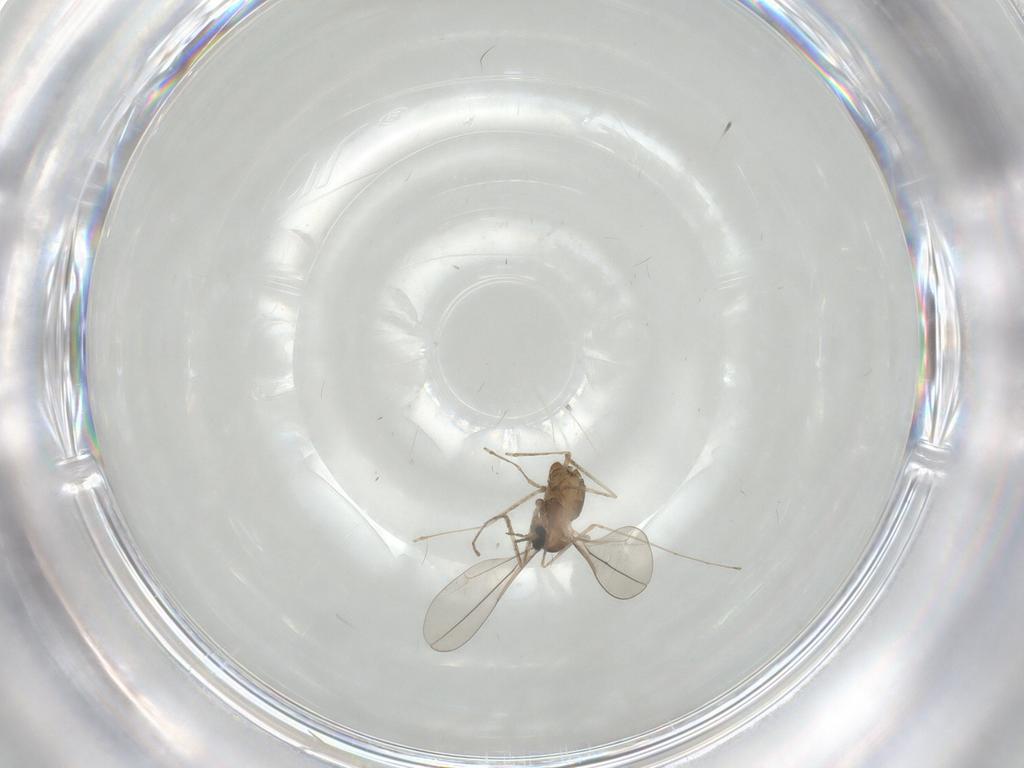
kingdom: Animalia
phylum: Arthropoda
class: Insecta
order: Diptera
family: Cecidomyiidae
